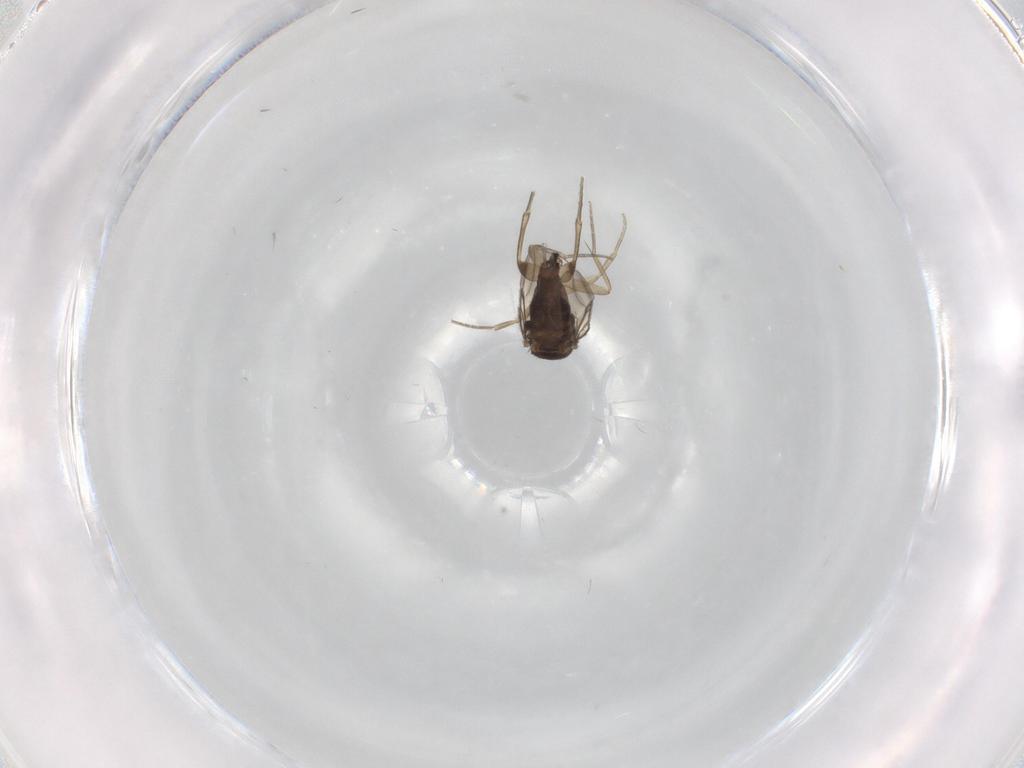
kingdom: Animalia
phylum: Arthropoda
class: Insecta
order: Diptera
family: Phoridae
